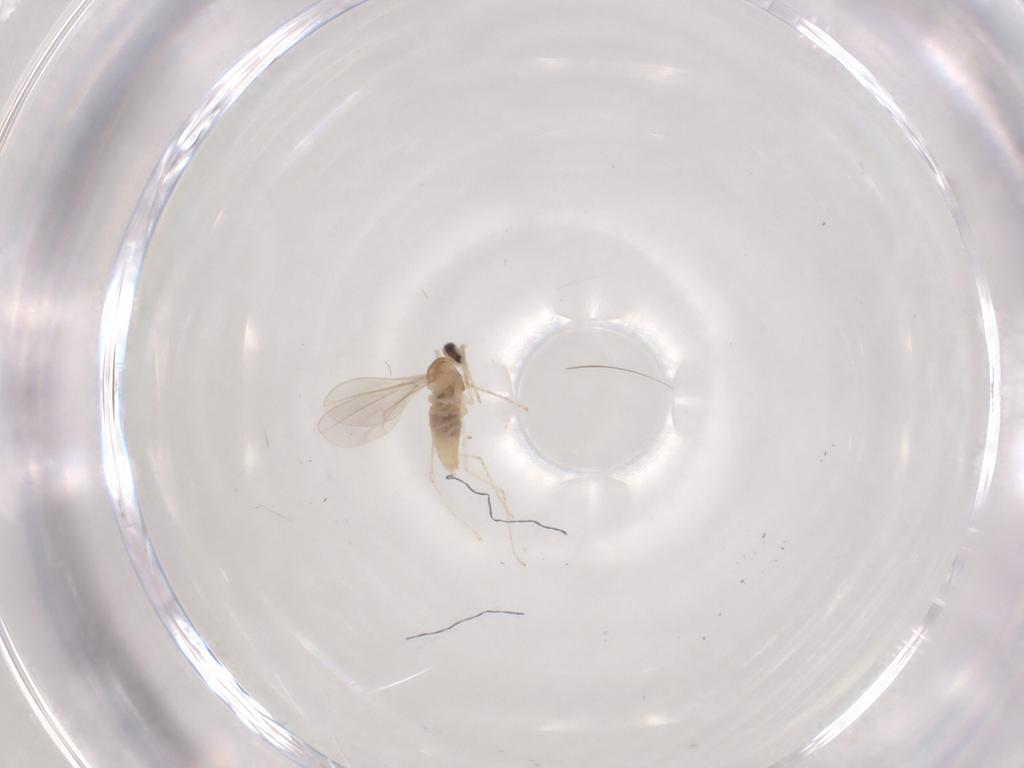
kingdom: Animalia
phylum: Arthropoda
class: Insecta
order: Diptera
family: Cecidomyiidae
